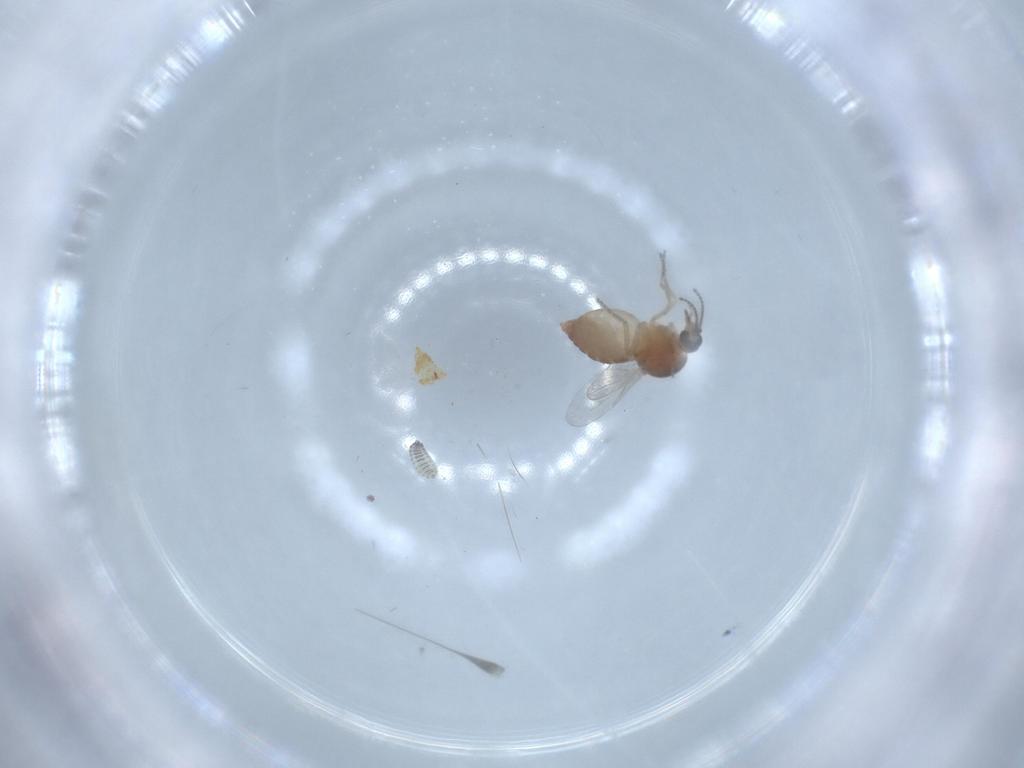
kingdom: Animalia
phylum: Arthropoda
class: Insecta
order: Diptera
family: Ceratopogonidae
